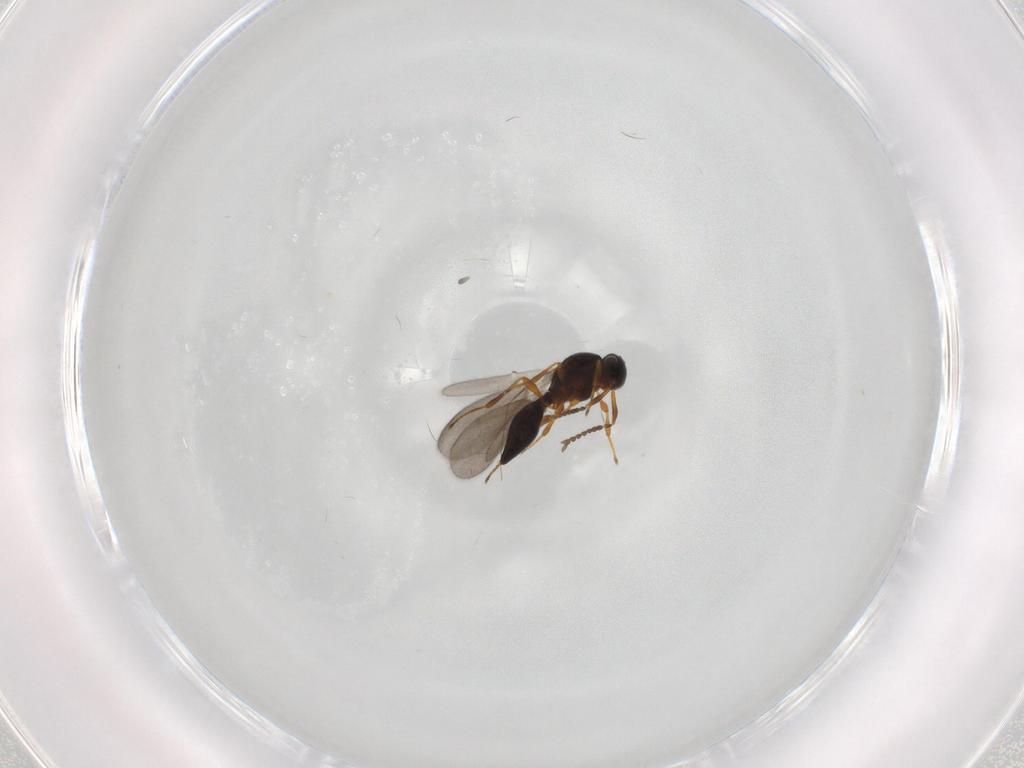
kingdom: Animalia
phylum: Arthropoda
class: Insecta
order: Hymenoptera
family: Platygastridae
